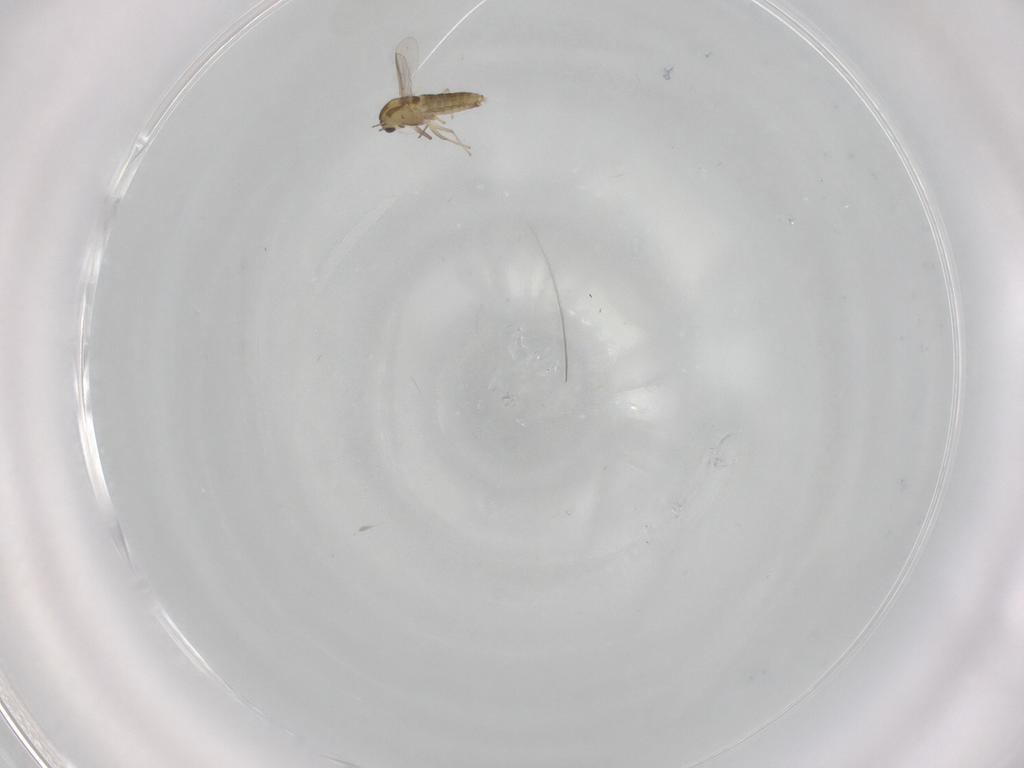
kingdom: Animalia
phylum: Arthropoda
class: Insecta
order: Diptera
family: Chironomidae
